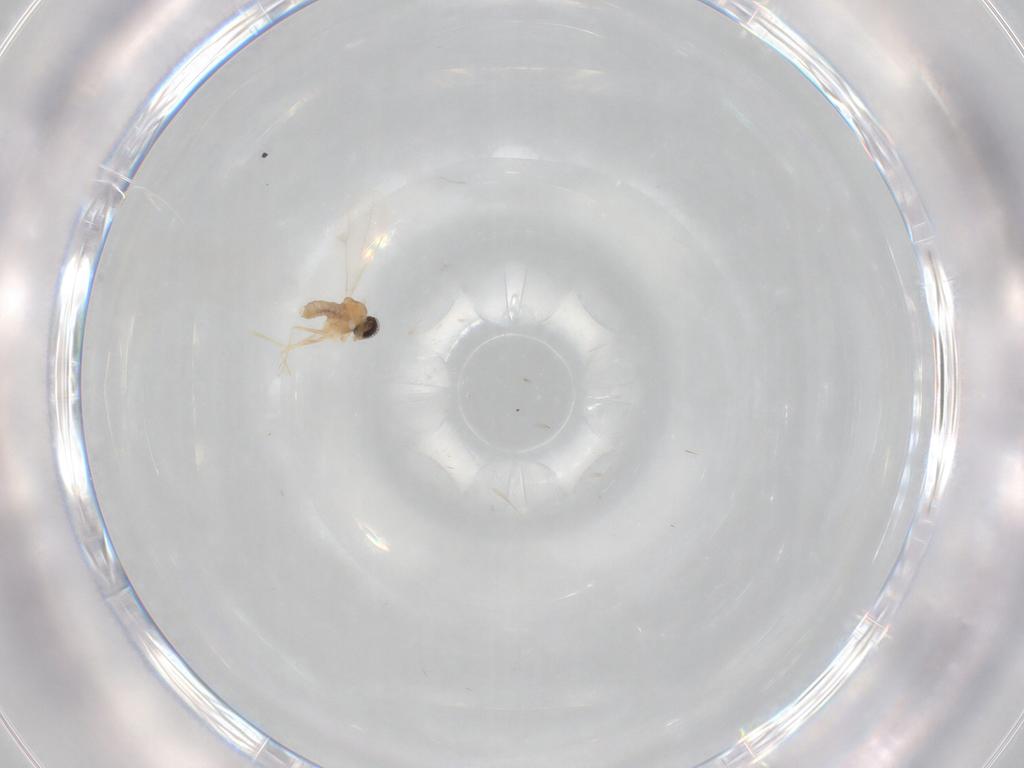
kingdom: Animalia
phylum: Arthropoda
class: Insecta
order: Diptera
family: Cecidomyiidae
